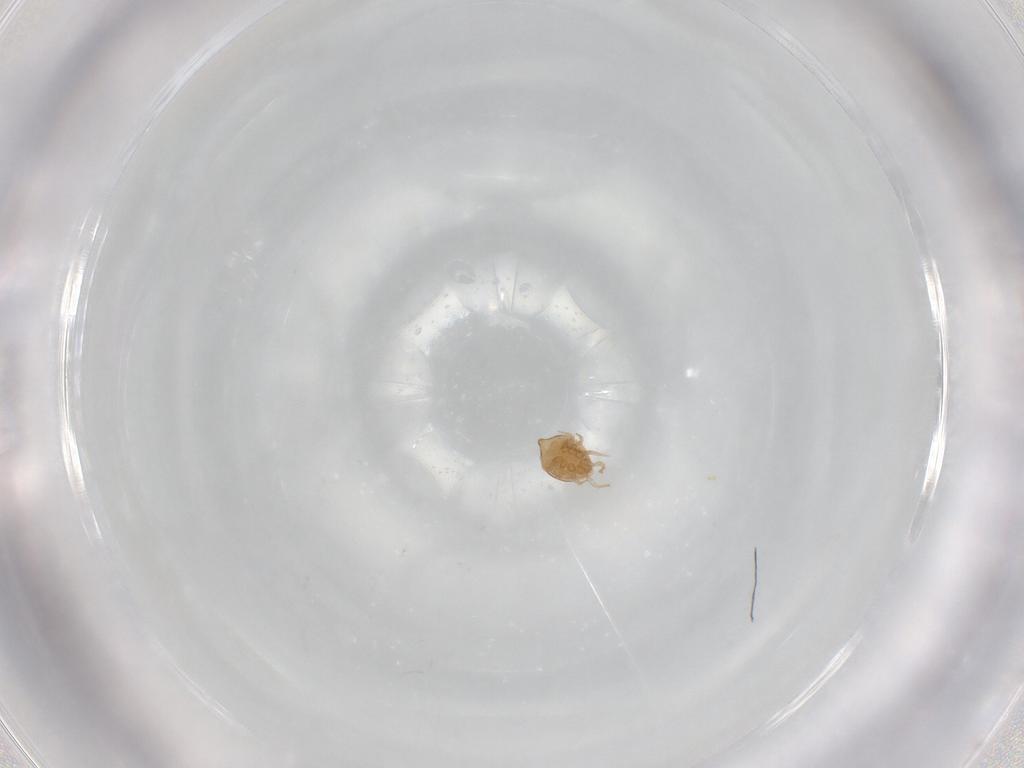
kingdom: Animalia
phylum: Arthropoda
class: Arachnida
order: Mesostigmata
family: Polyaspididae
